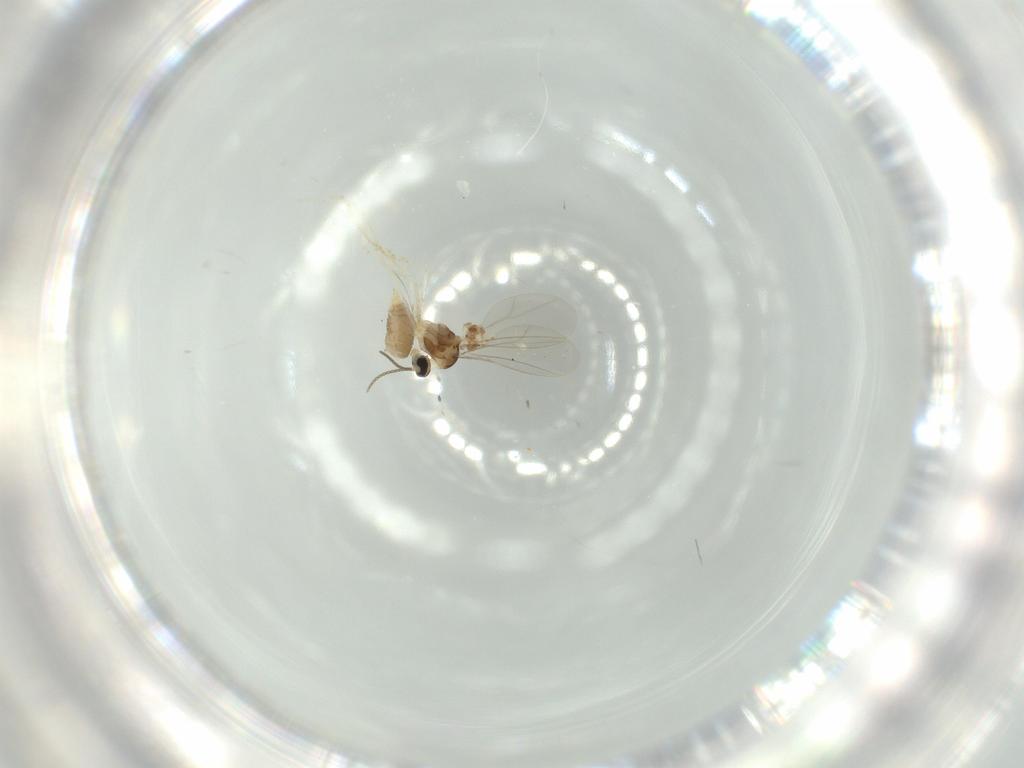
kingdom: Animalia
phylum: Arthropoda
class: Insecta
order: Diptera
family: Cecidomyiidae
